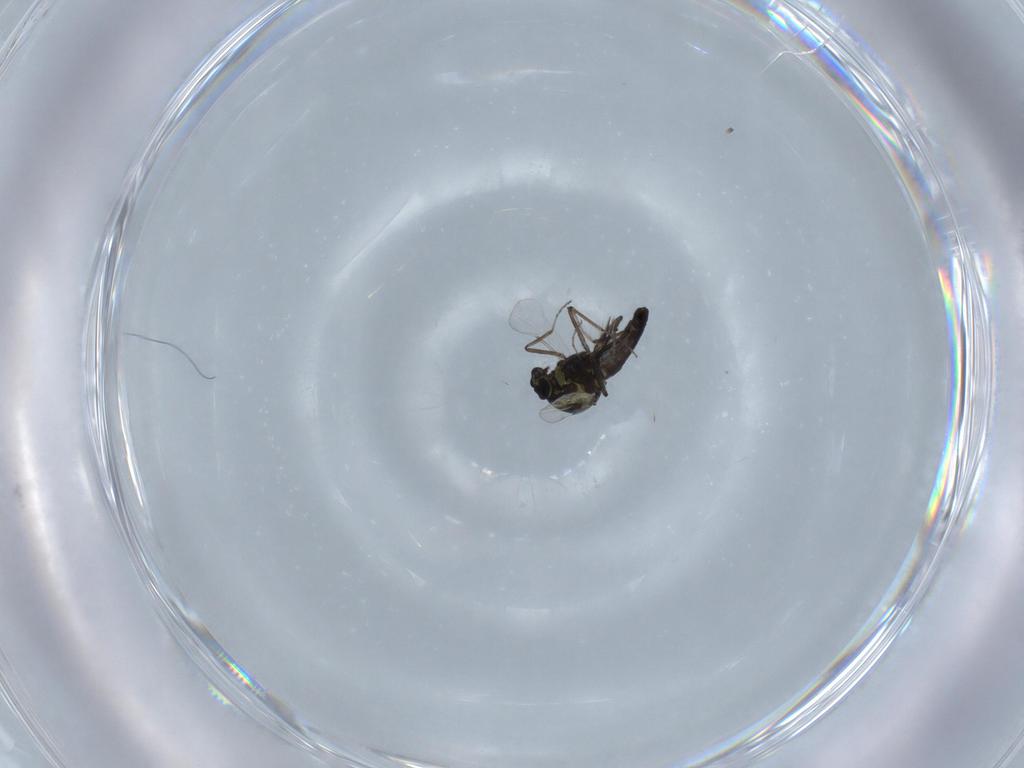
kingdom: Animalia
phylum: Arthropoda
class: Insecta
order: Diptera
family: Ceratopogonidae
